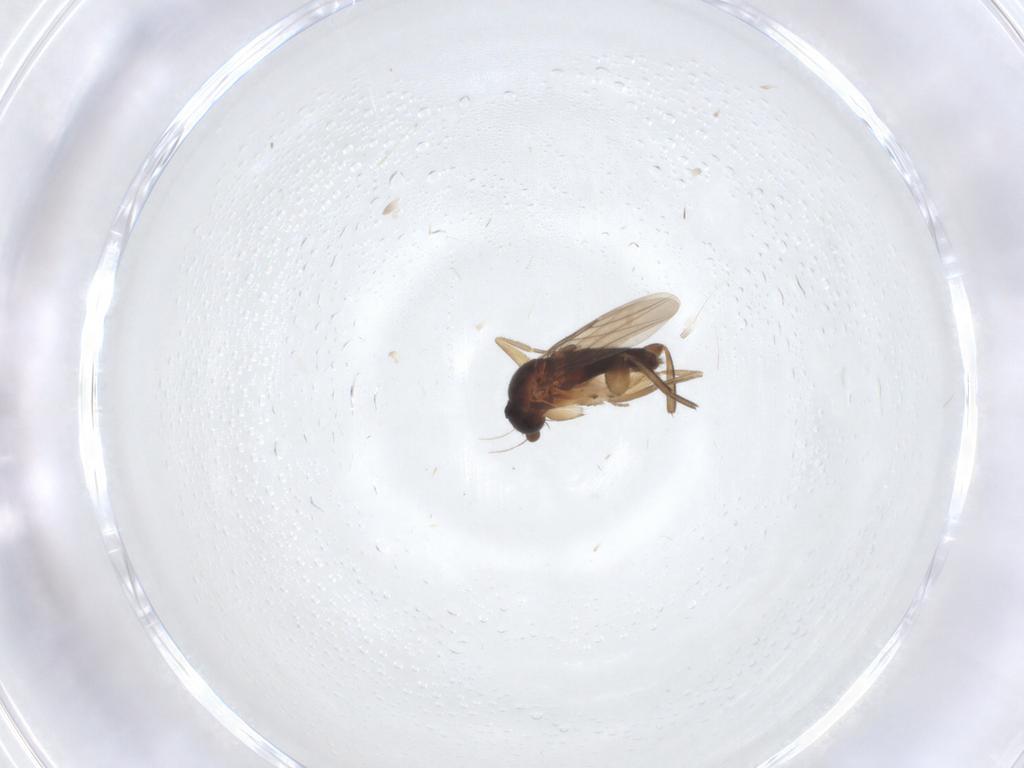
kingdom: Animalia
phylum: Arthropoda
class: Insecta
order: Diptera
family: Phoridae
